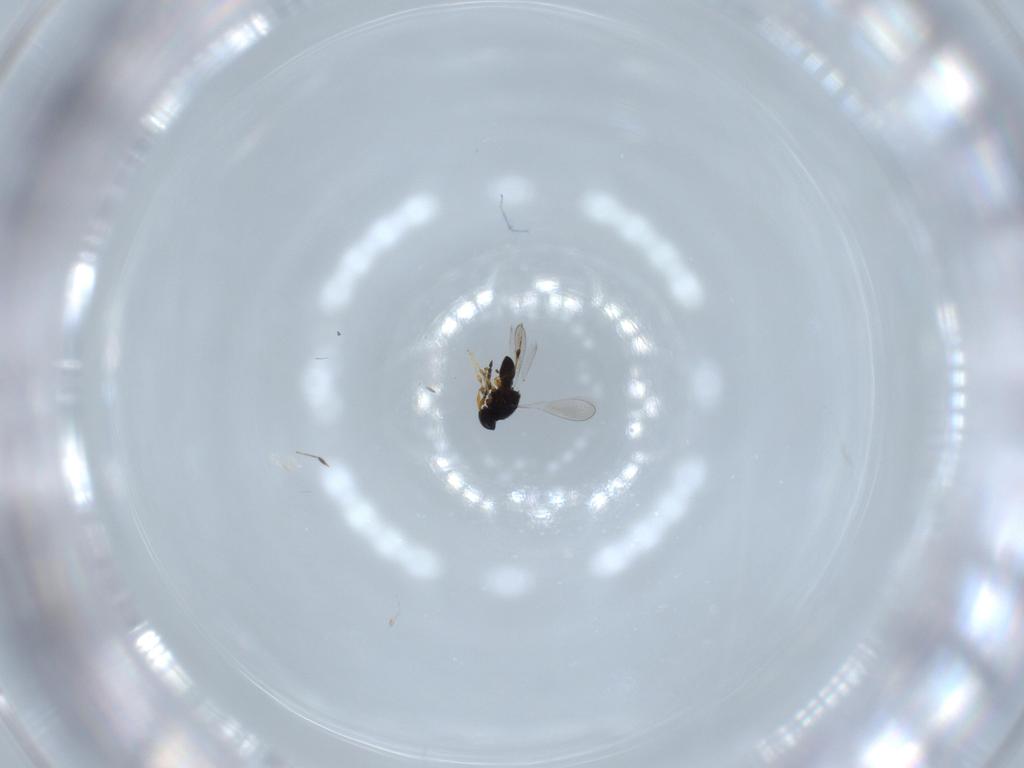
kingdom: Animalia
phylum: Arthropoda
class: Insecta
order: Hymenoptera
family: Platygastridae
